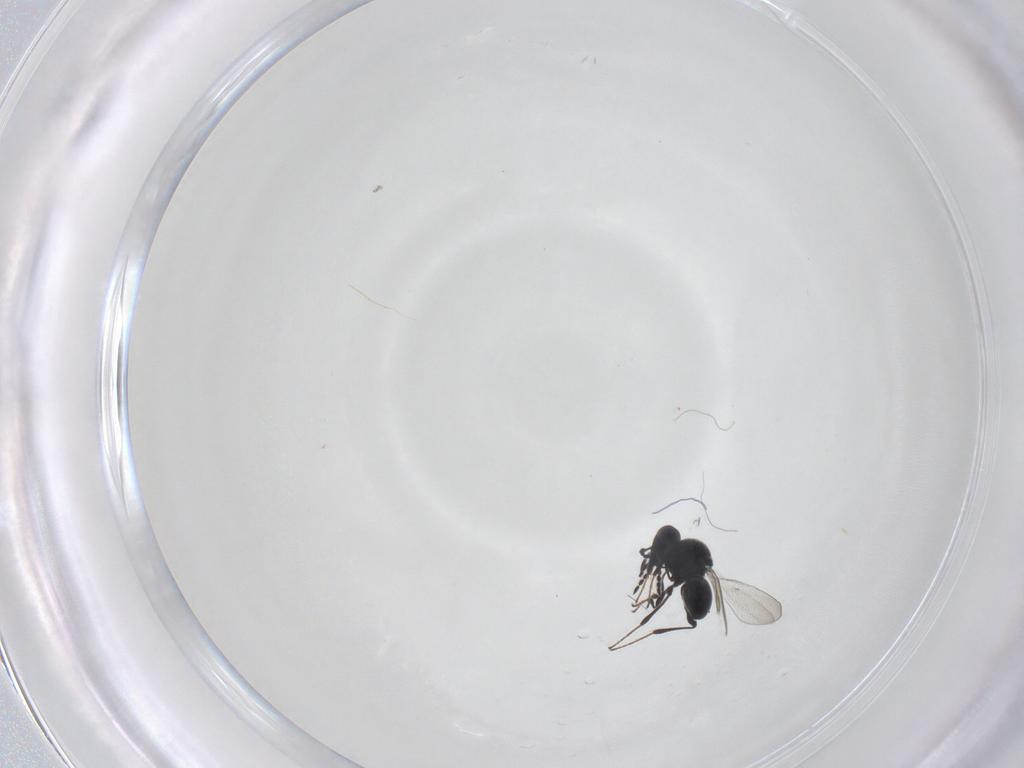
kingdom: Animalia
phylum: Arthropoda
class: Insecta
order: Hymenoptera
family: Platygastridae
